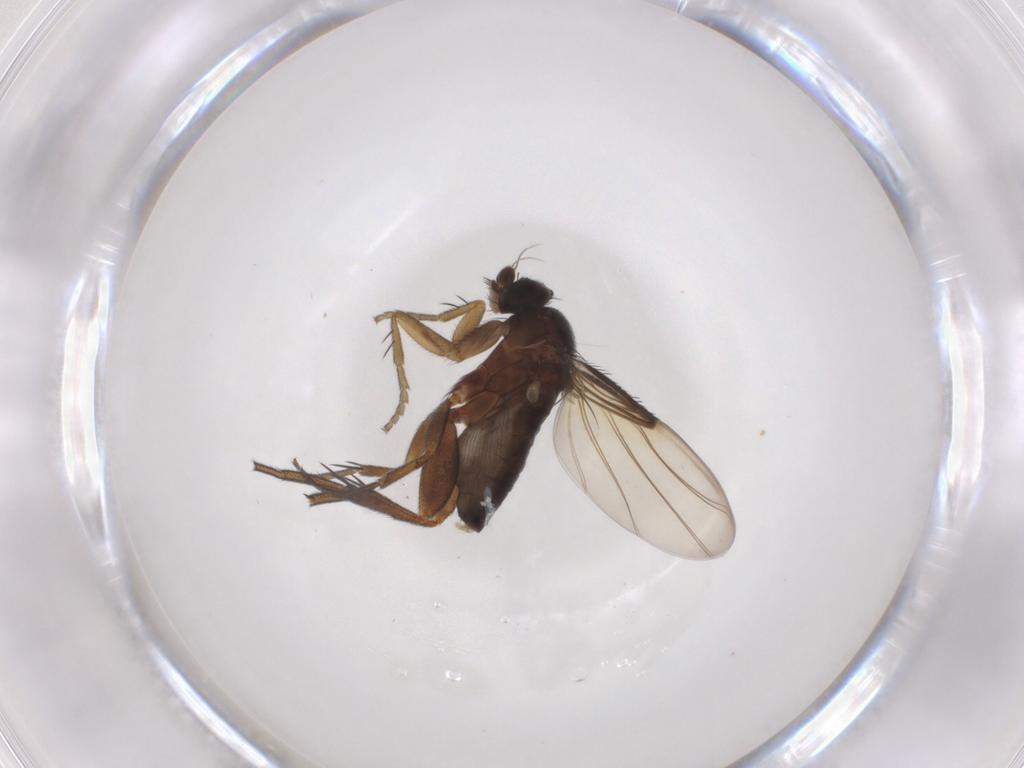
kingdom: Animalia
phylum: Arthropoda
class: Insecta
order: Diptera
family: Phoridae
